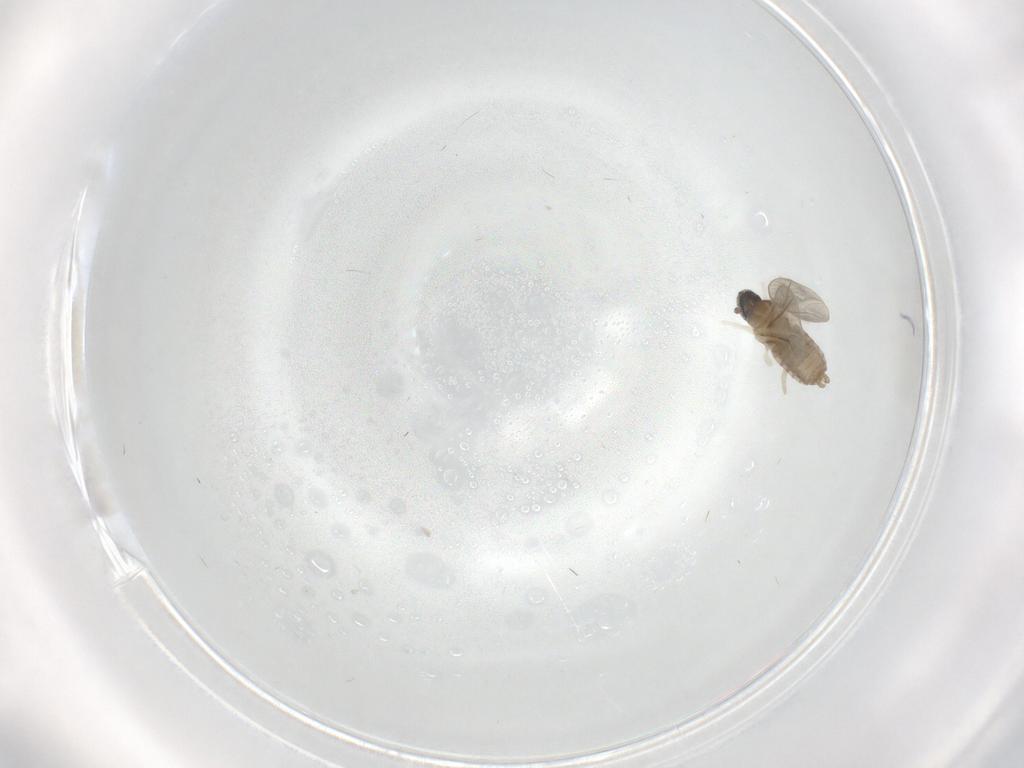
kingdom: Animalia
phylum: Arthropoda
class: Insecta
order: Diptera
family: Cecidomyiidae
